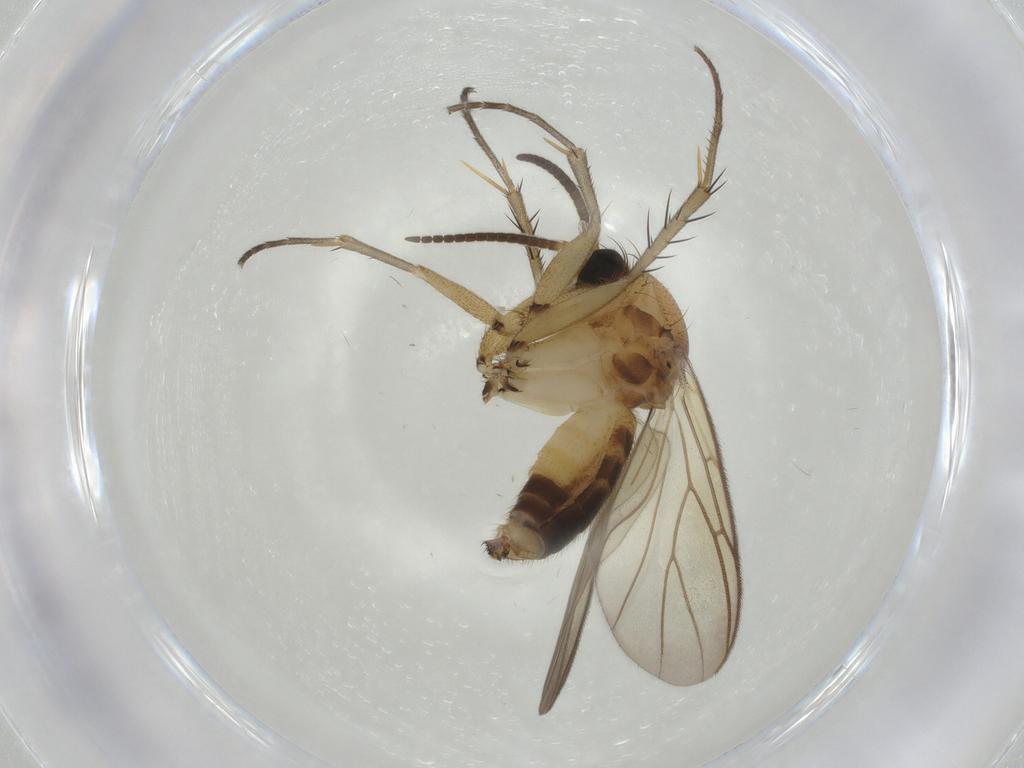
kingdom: Animalia
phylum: Arthropoda
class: Insecta
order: Diptera
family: Mycetophilidae
